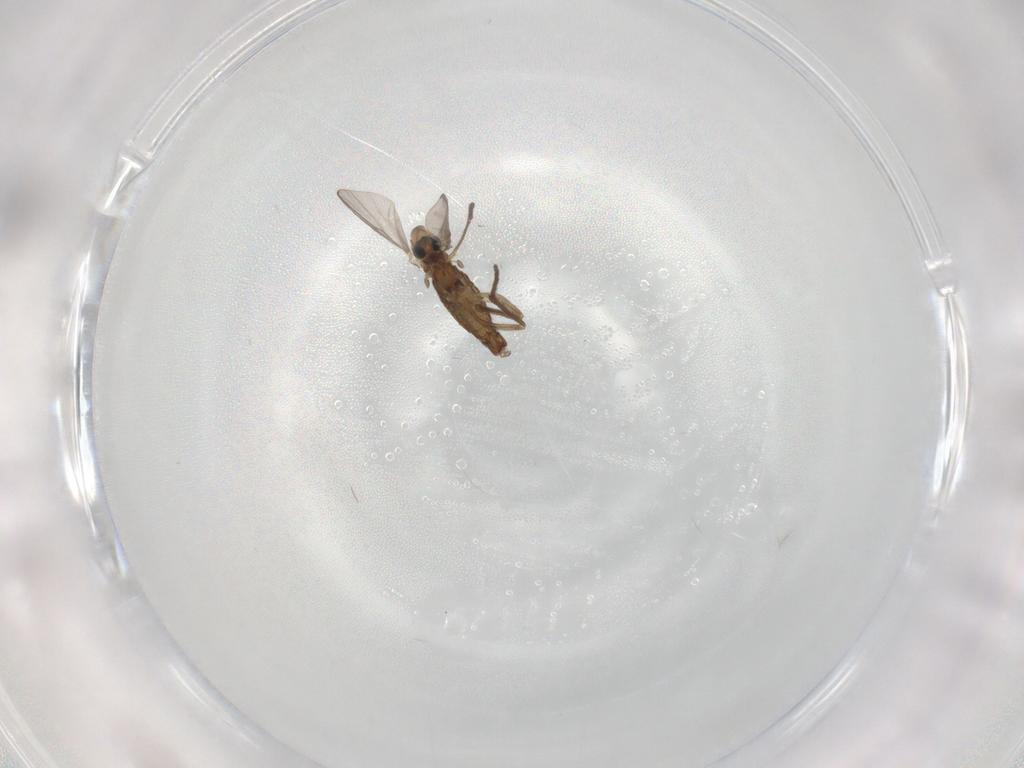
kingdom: Animalia
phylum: Arthropoda
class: Insecta
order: Diptera
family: Chironomidae
